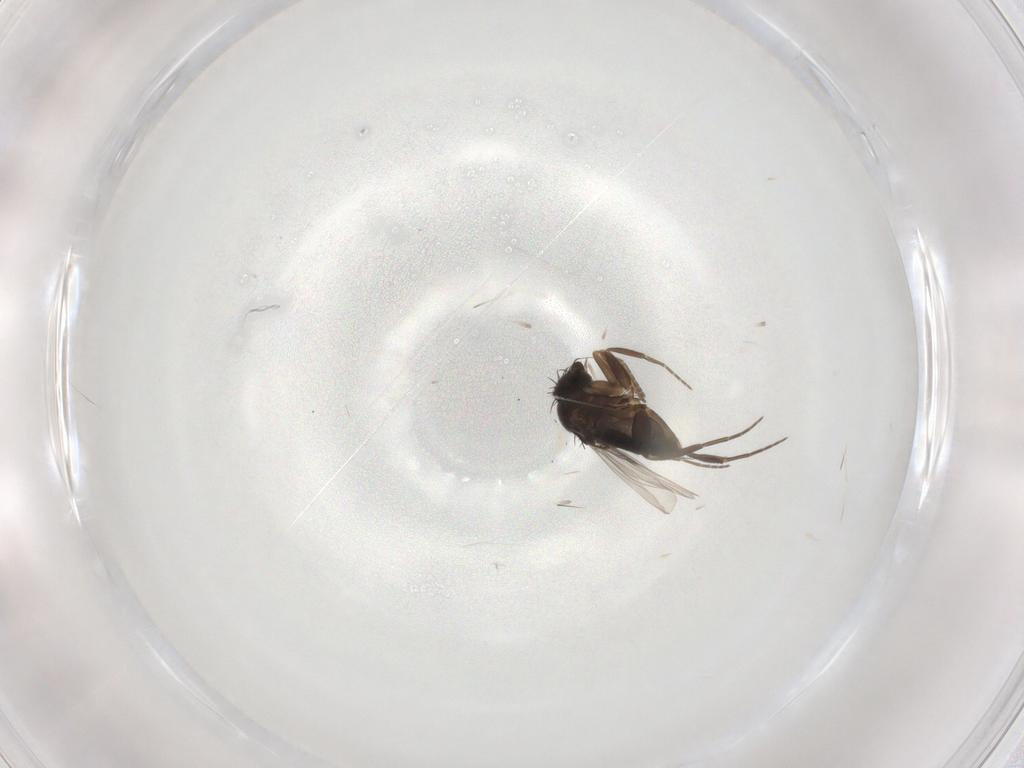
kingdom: Animalia
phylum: Arthropoda
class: Insecta
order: Diptera
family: Phoridae
